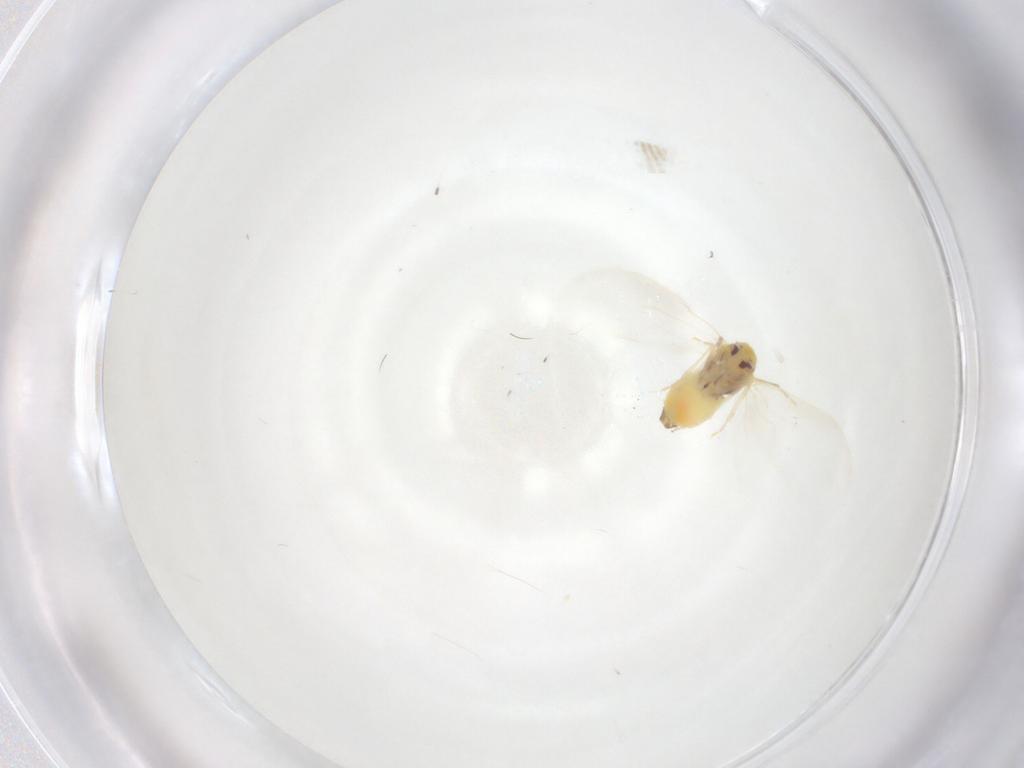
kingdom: Animalia
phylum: Arthropoda
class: Insecta
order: Hemiptera
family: Aleyrodidae
